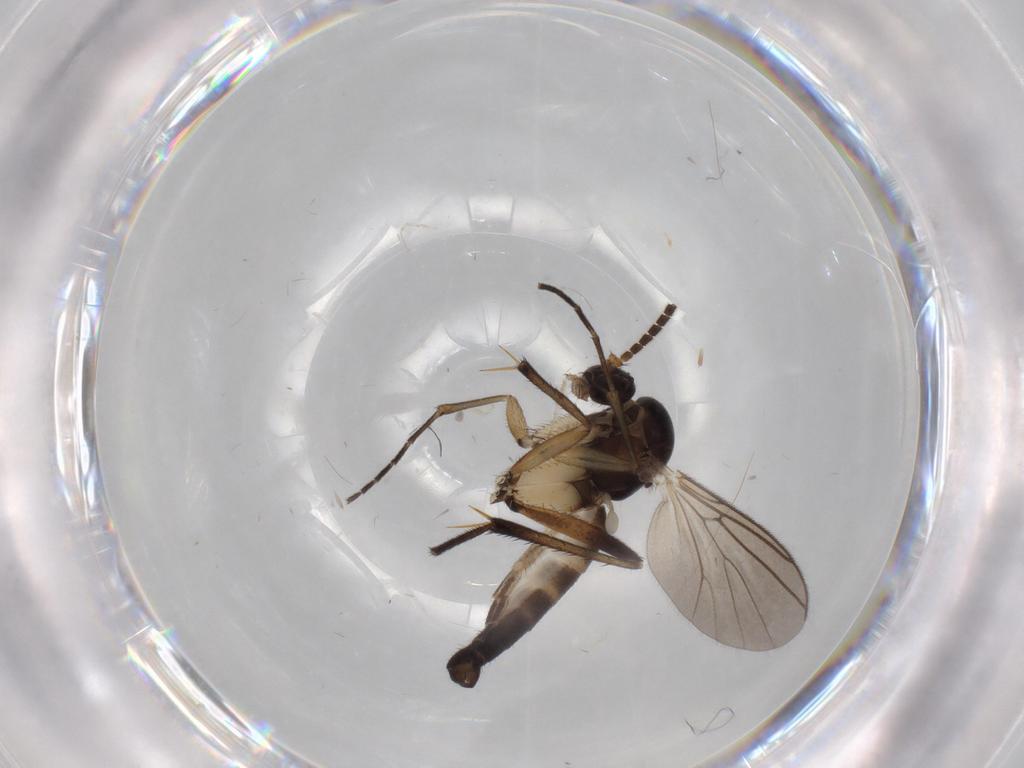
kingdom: Animalia
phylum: Arthropoda
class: Insecta
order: Diptera
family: Mycetophilidae
